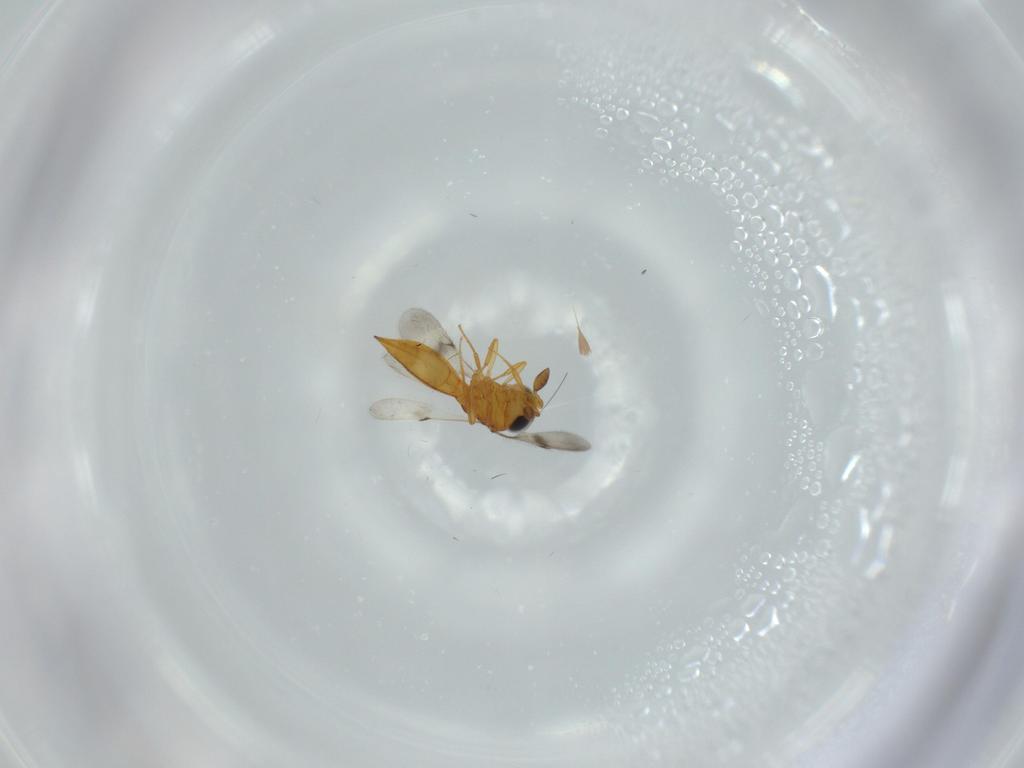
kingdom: Animalia
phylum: Arthropoda
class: Insecta
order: Hymenoptera
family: Scelionidae
